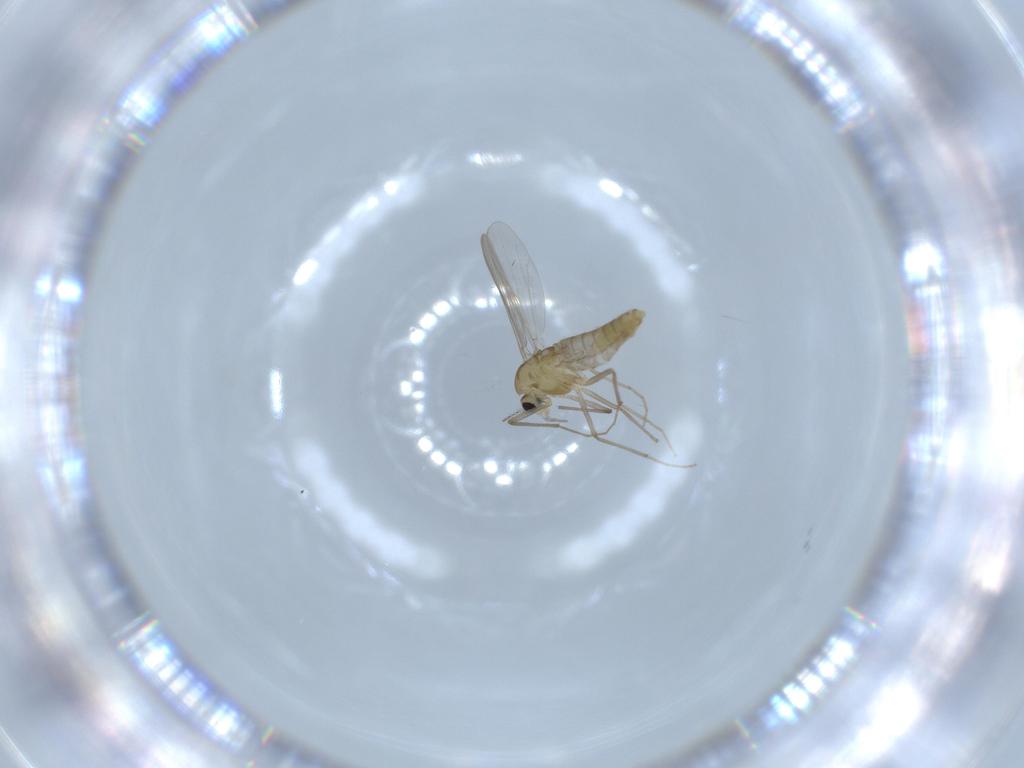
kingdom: Animalia
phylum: Arthropoda
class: Insecta
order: Diptera
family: Chironomidae
